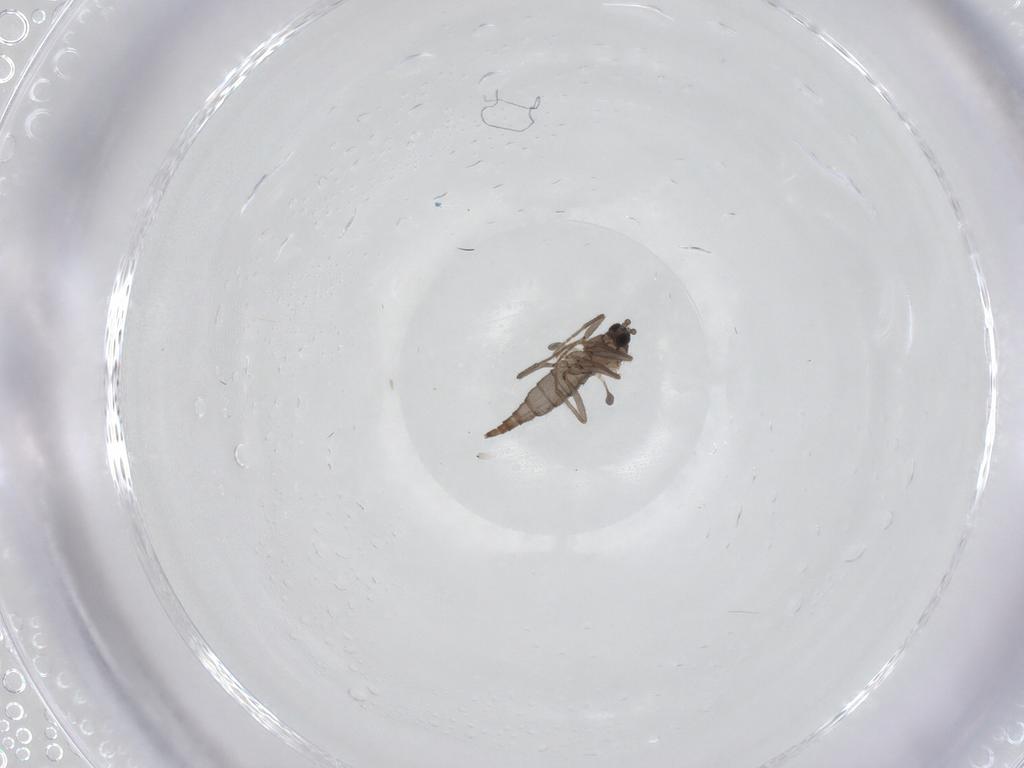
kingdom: Animalia
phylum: Arthropoda
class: Insecta
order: Diptera
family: Sciaridae
